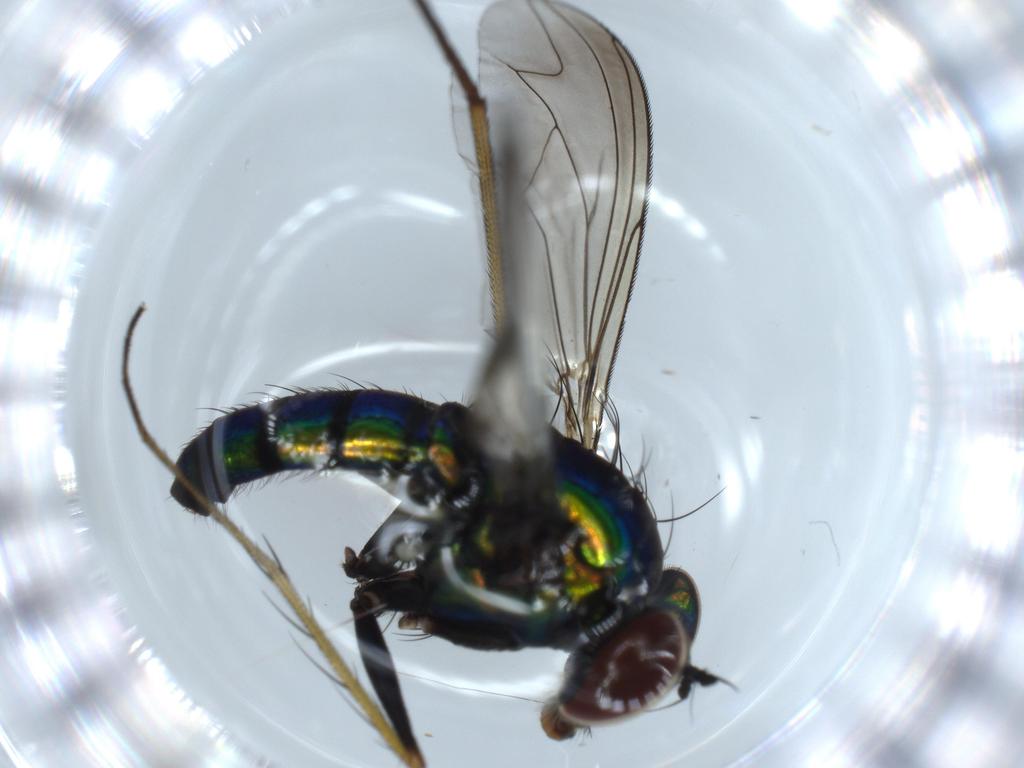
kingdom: Animalia
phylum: Arthropoda
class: Insecta
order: Diptera
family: Dolichopodidae
